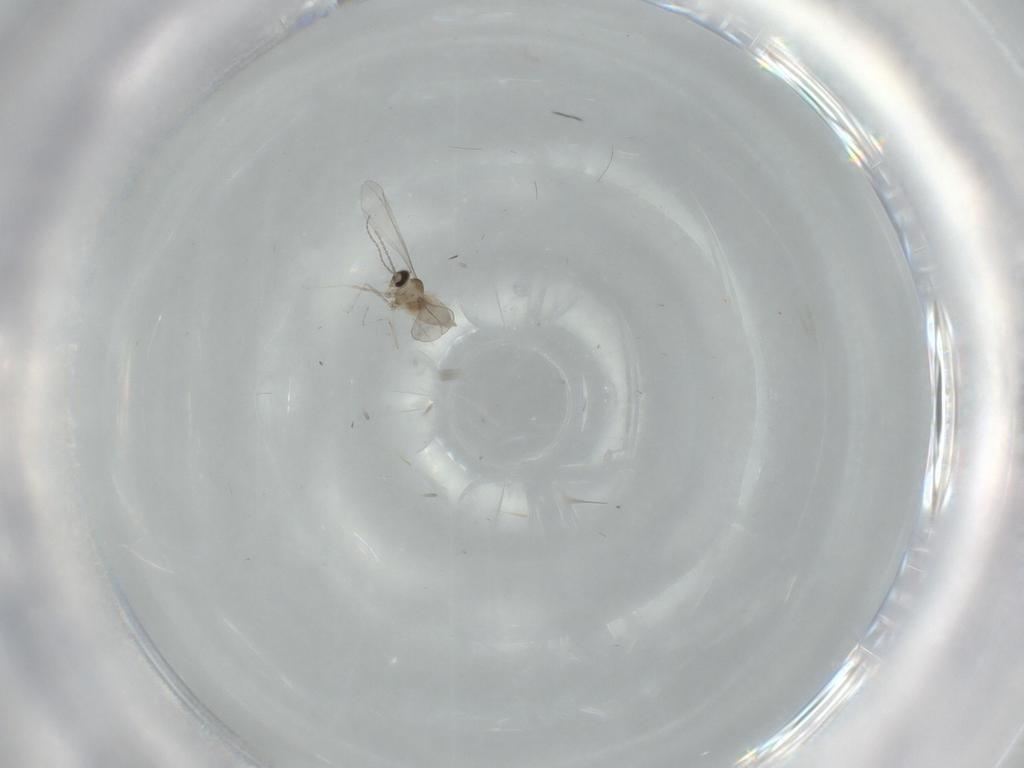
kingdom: Animalia
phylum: Arthropoda
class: Insecta
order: Diptera
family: Cecidomyiidae
